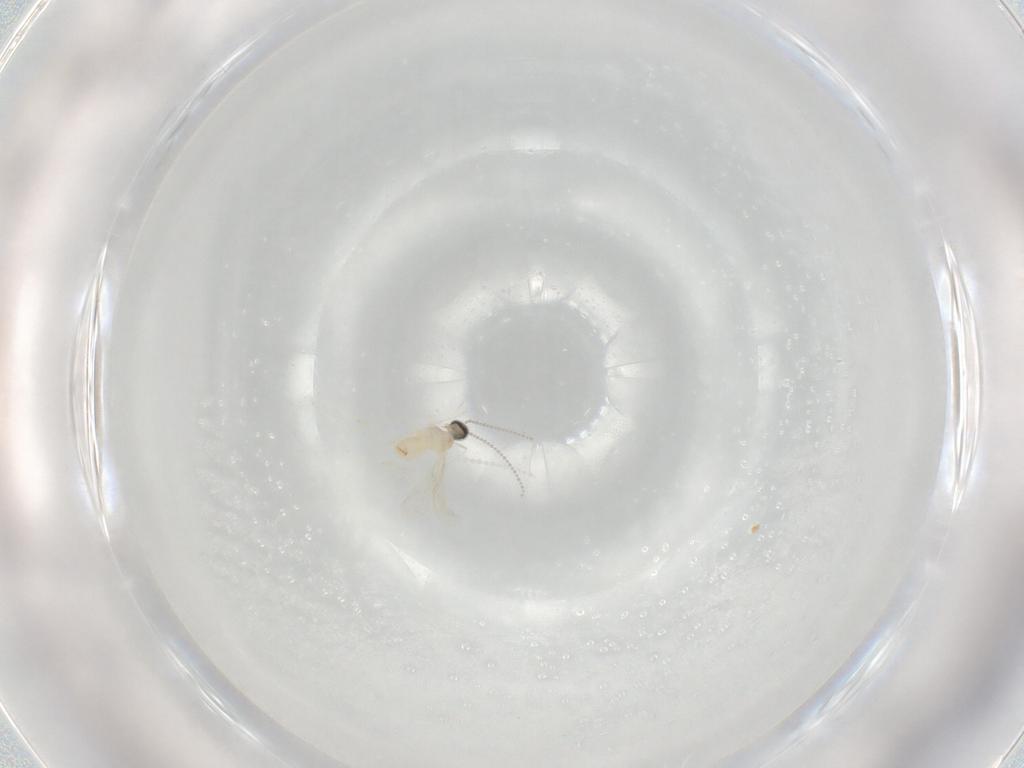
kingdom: Animalia
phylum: Arthropoda
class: Insecta
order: Diptera
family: Cecidomyiidae
